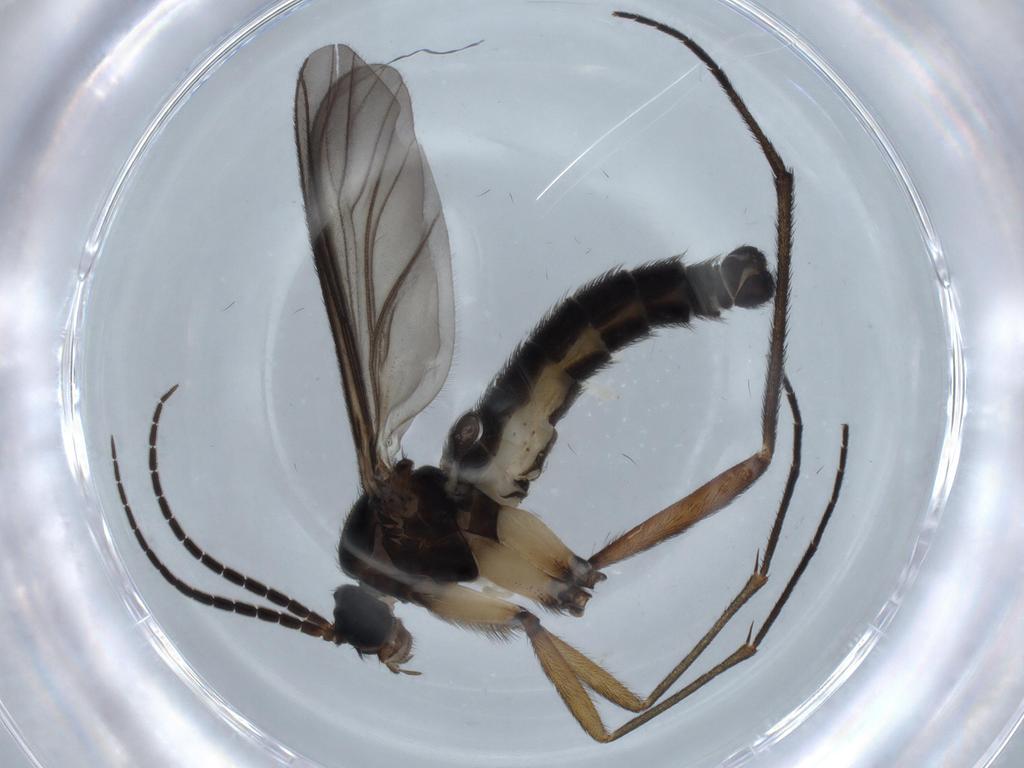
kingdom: Animalia
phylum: Arthropoda
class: Insecta
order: Diptera
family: Sciaridae
